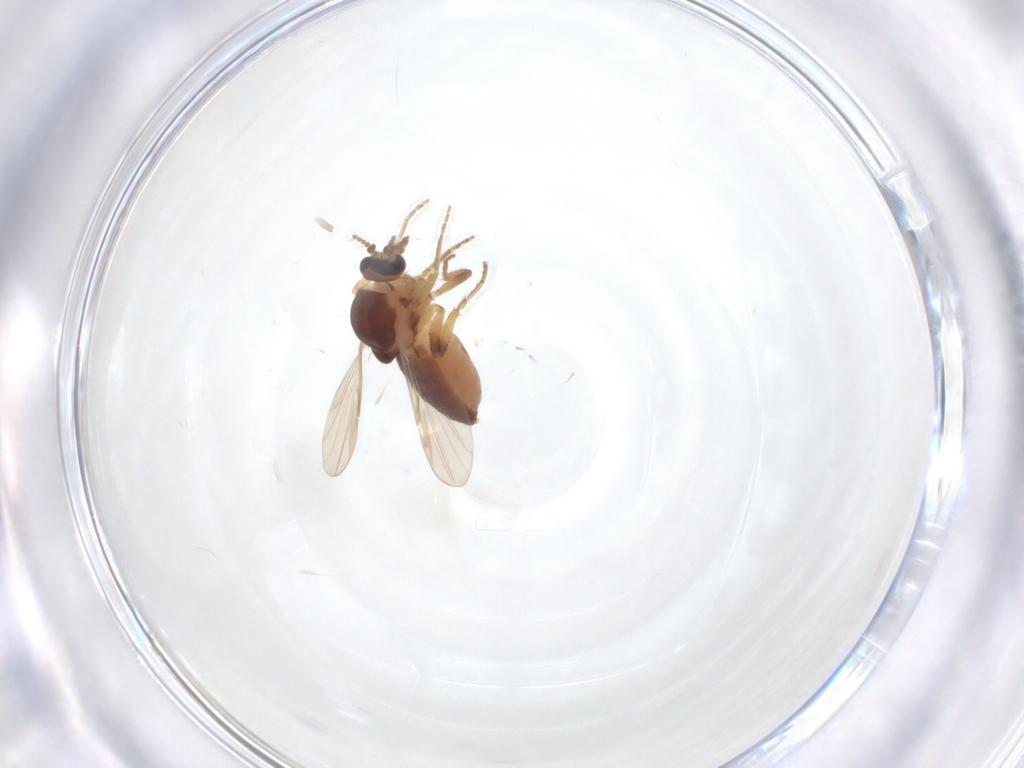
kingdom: Animalia
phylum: Arthropoda
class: Insecta
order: Diptera
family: Ceratopogonidae
